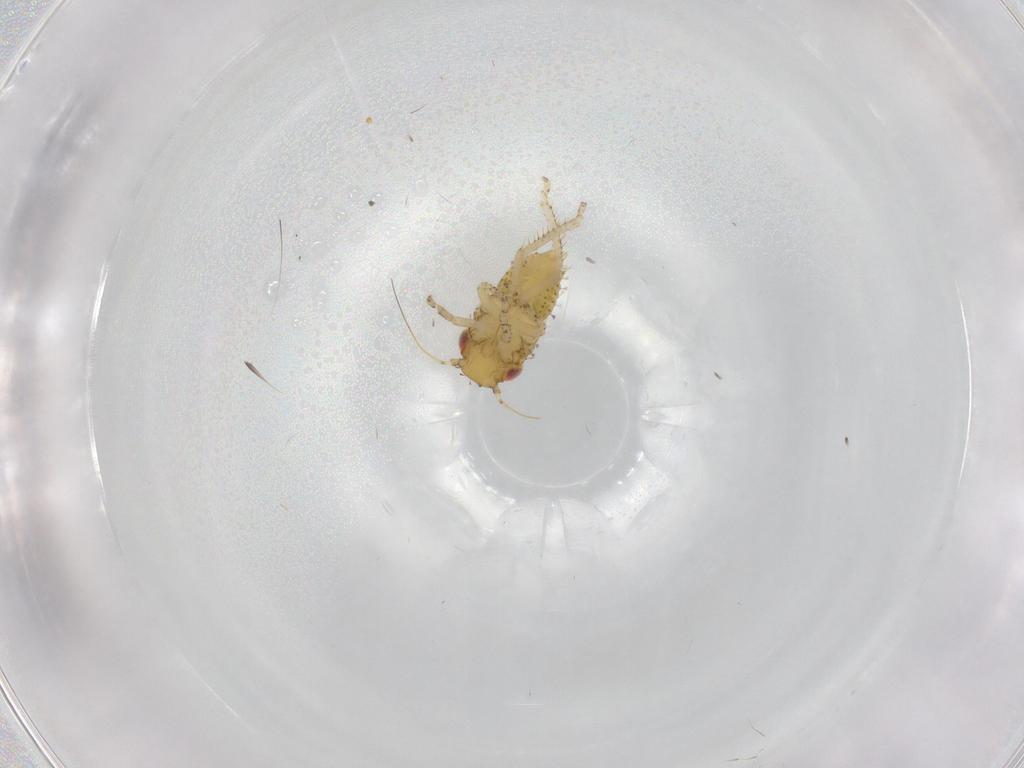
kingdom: Animalia
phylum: Arthropoda
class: Insecta
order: Hemiptera
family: Cicadellidae
